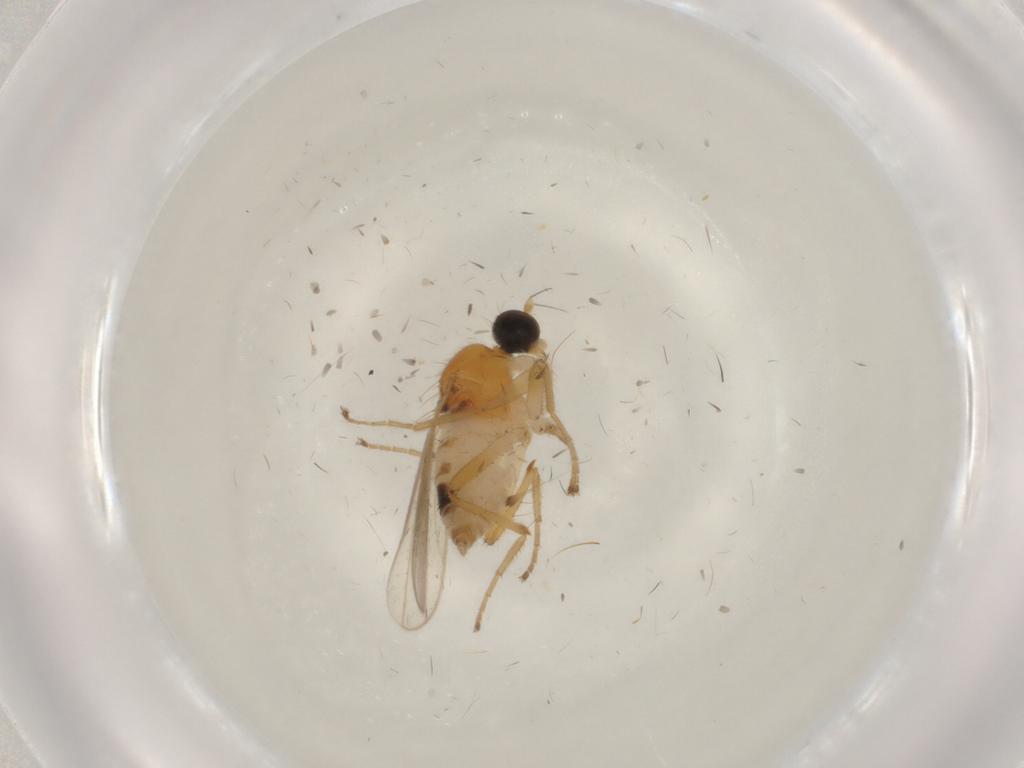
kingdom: Animalia
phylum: Arthropoda
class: Insecta
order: Diptera
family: Hybotidae
